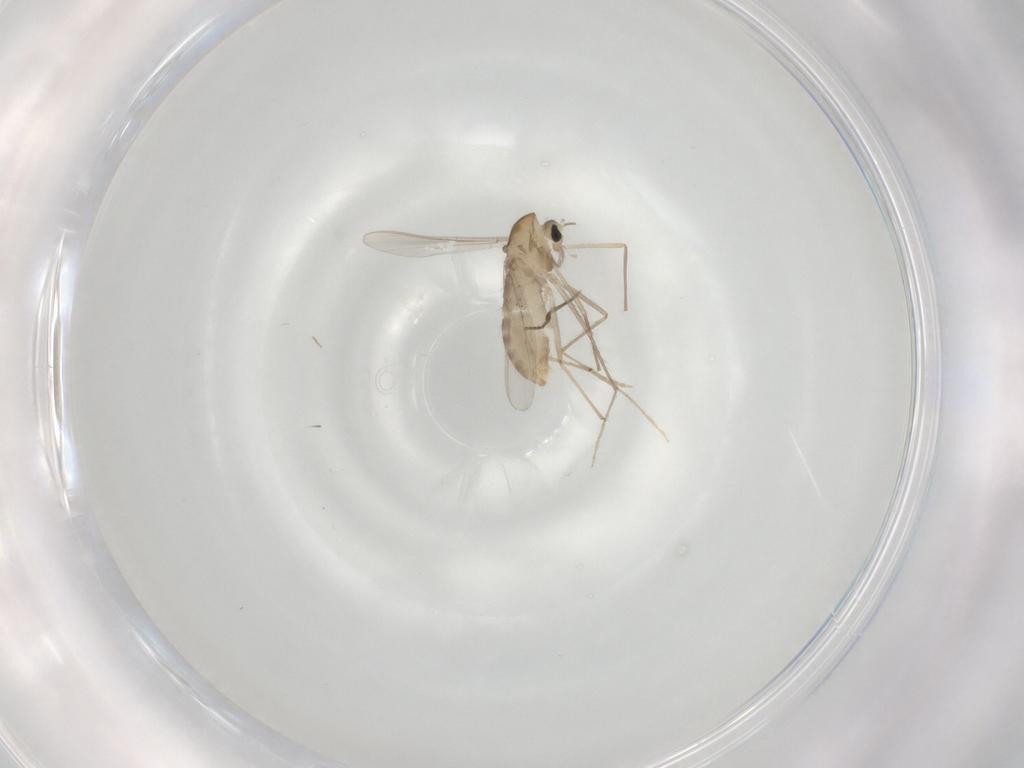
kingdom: Animalia
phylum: Arthropoda
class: Insecta
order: Diptera
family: Chironomidae
